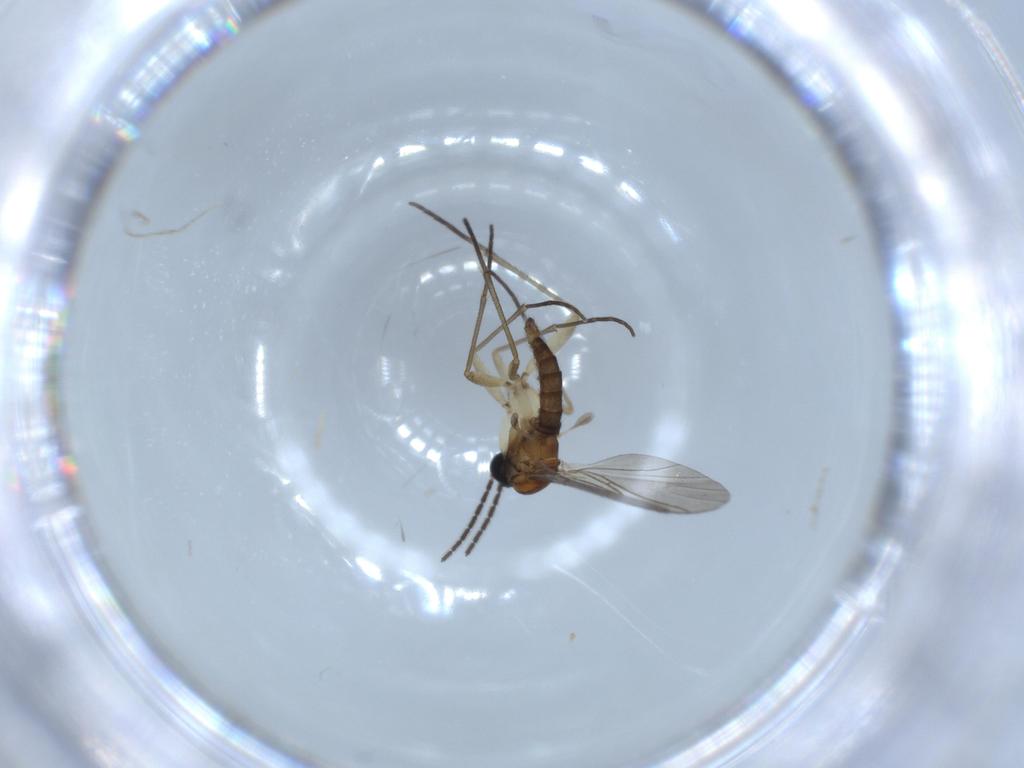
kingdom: Animalia
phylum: Arthropoda
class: Insecta
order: Diptera
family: Sciaridae
